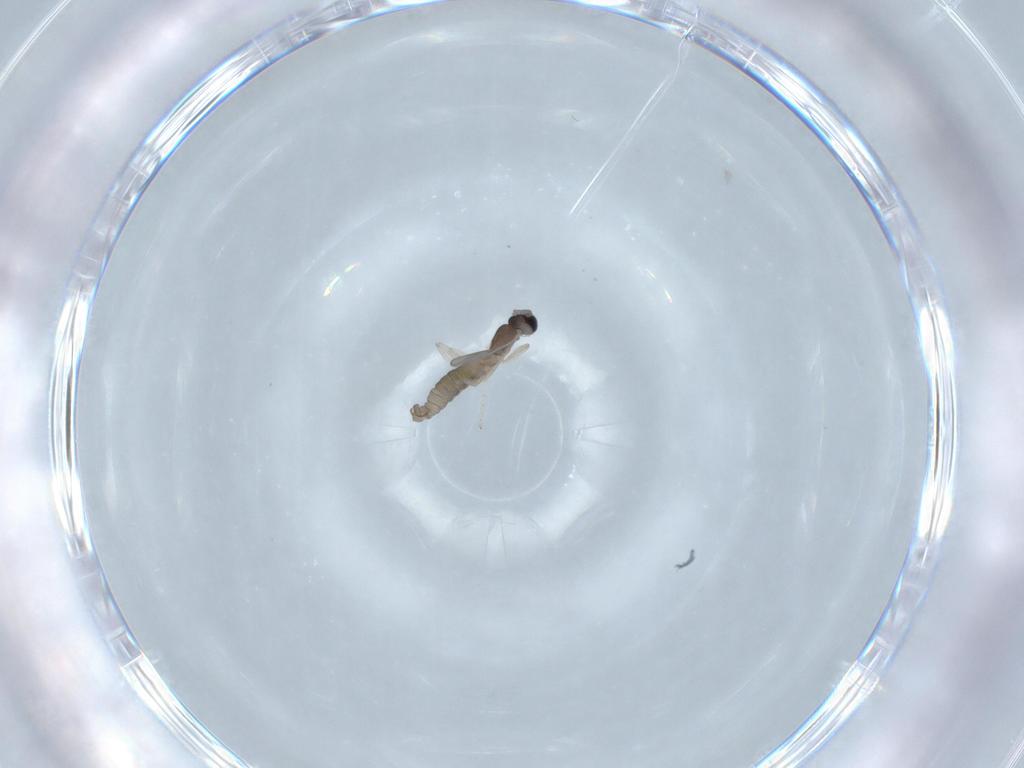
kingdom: Animalia
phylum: Arthropoda
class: Insecta
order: Diptera
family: Cecidomyiidae
